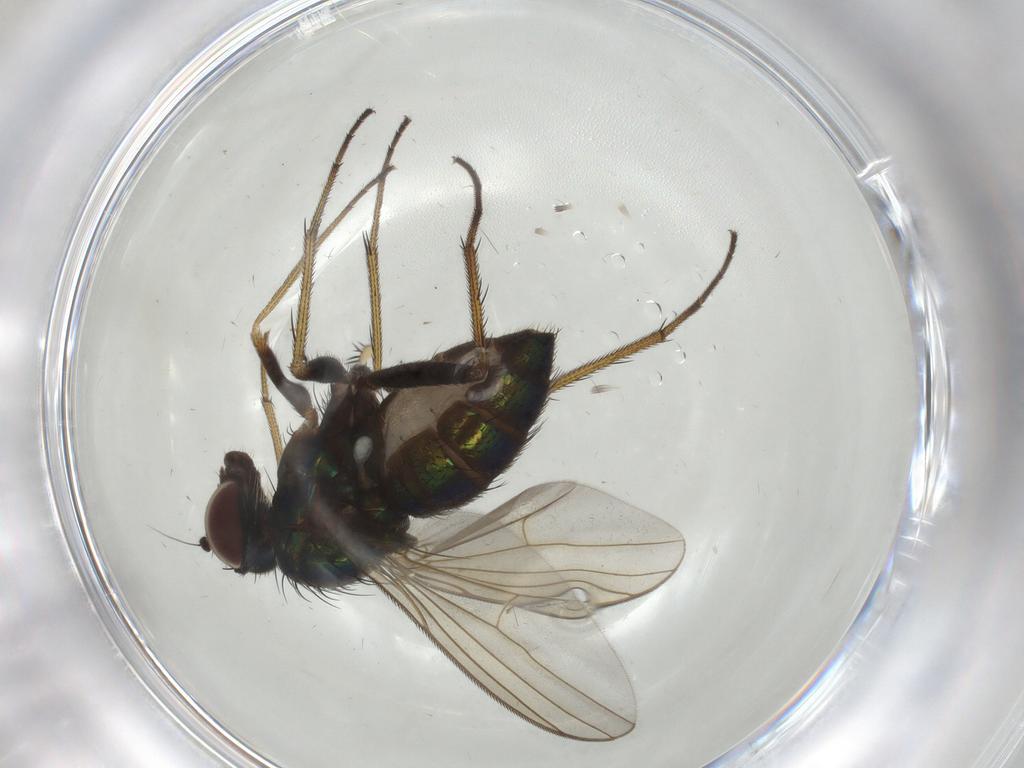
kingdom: Animalia
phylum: Arthropoda
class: Insecta
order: Diptera
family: Dolichopodidae
